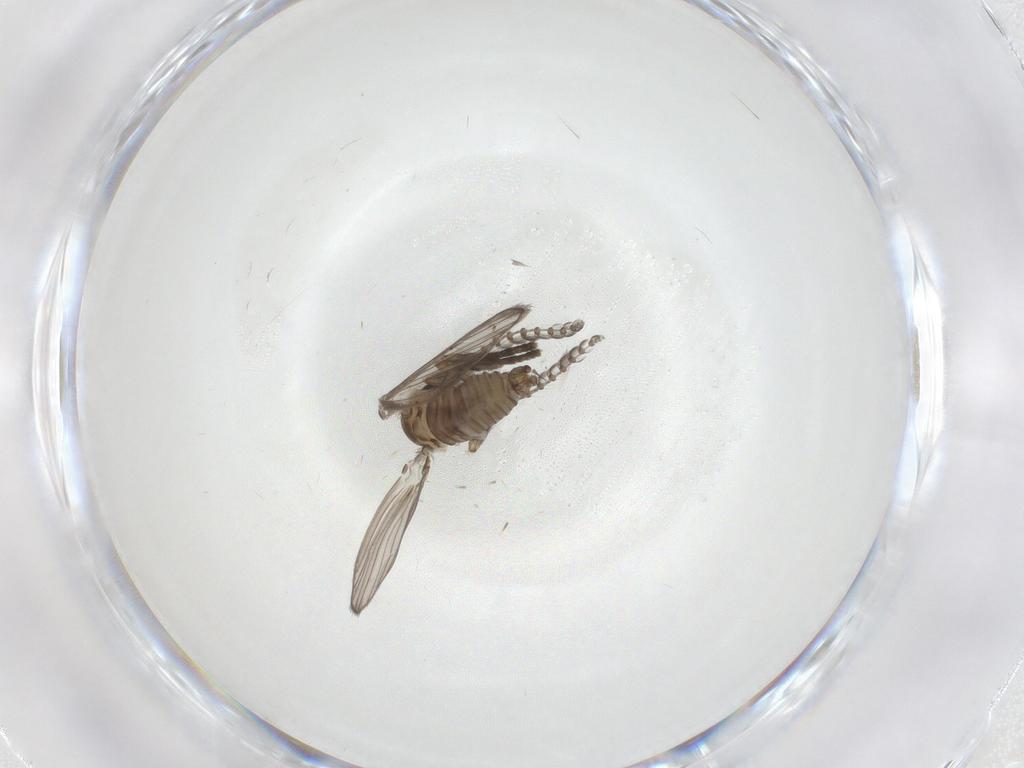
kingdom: Animalia
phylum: Arthropoda
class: Insecta
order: Diptera
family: Psychodidae
